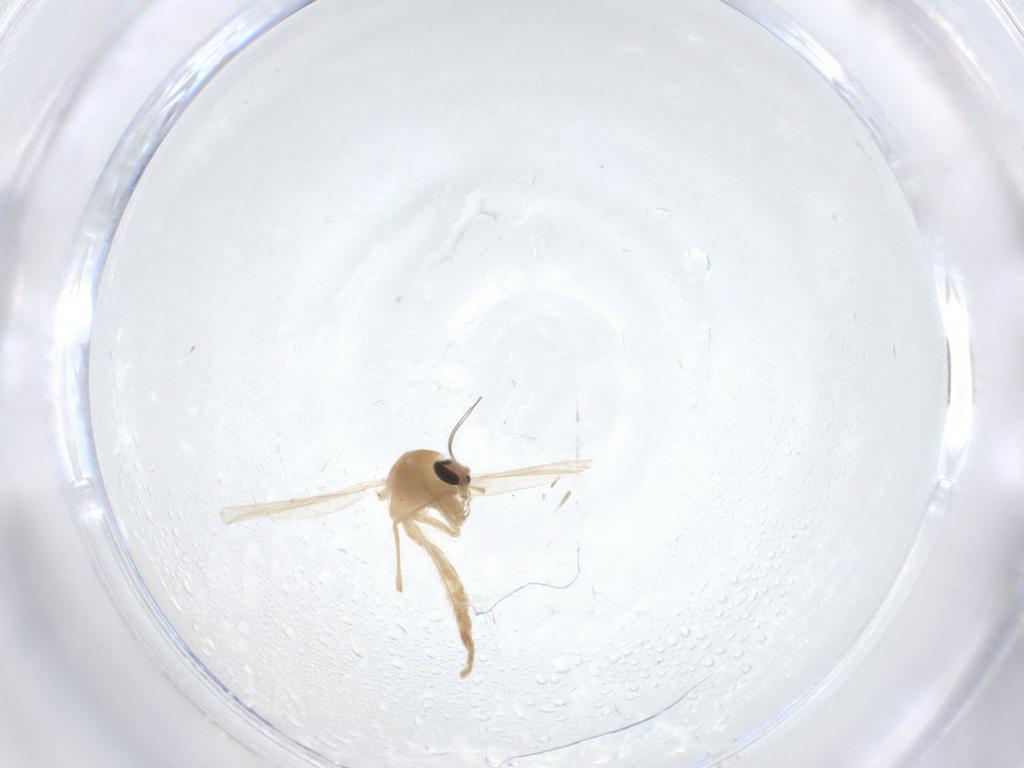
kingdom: Animalia
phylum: Arthropoda
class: Insecta
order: Diptera
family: Chironomidae
